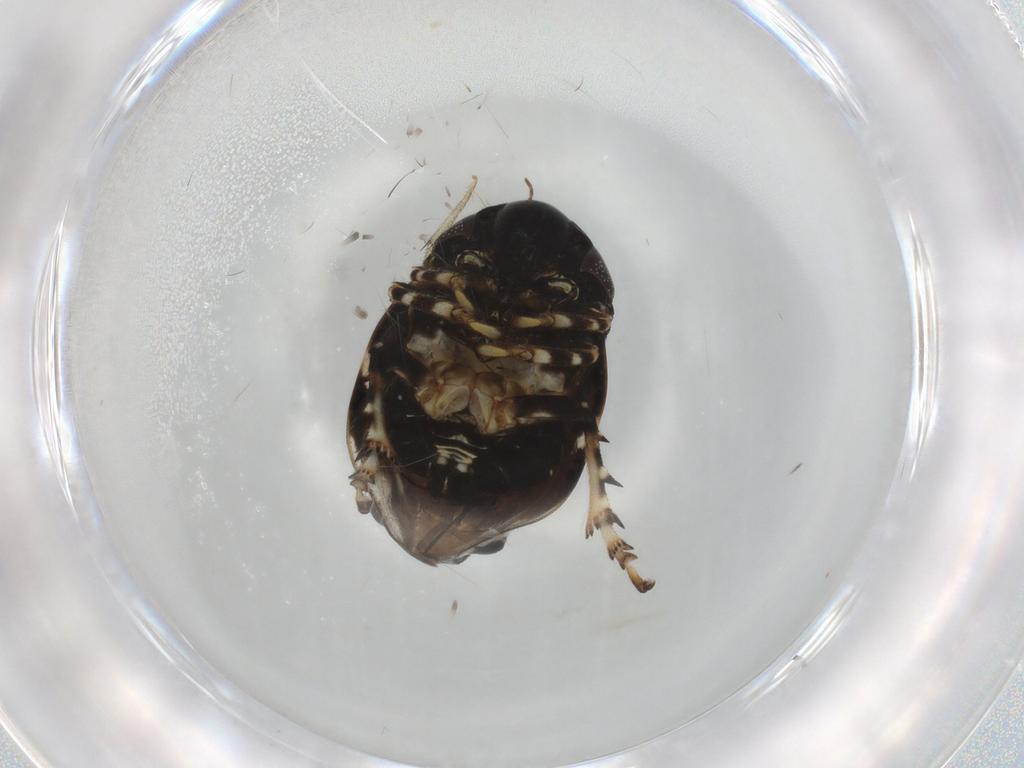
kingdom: Animalia
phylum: Arthropoda
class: Insecta
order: Hemiptera
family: Clastopteridae
